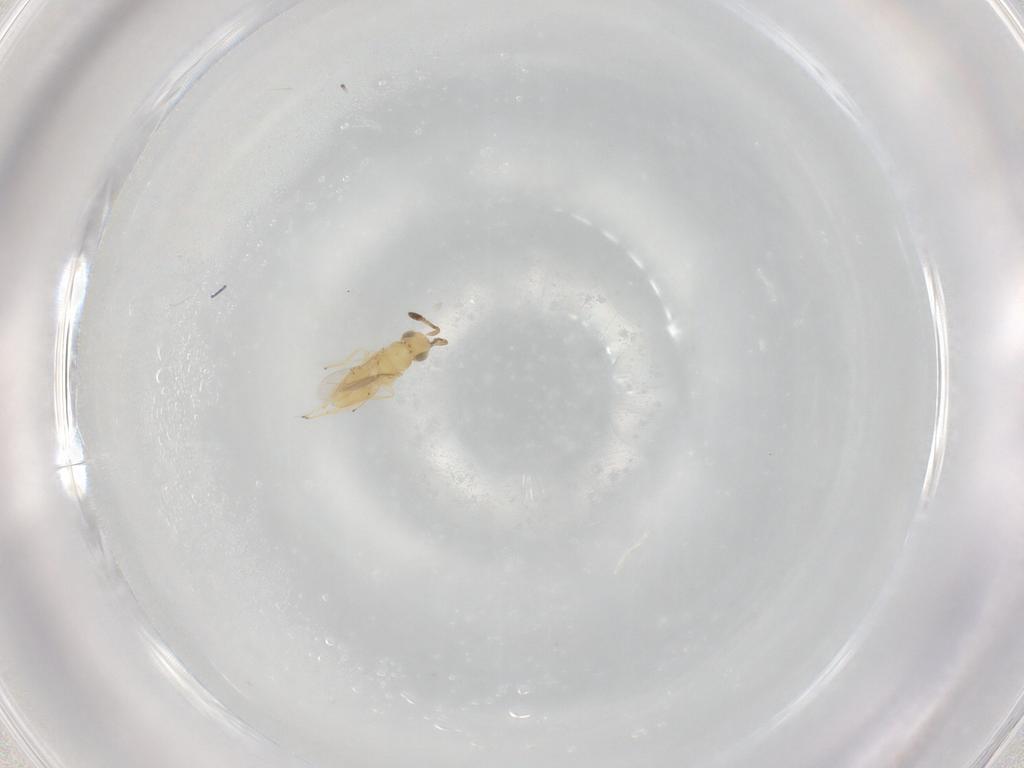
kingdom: Animalia
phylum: Arthropoda
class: Insecta
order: Hymenoptera
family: Encyrtidae
